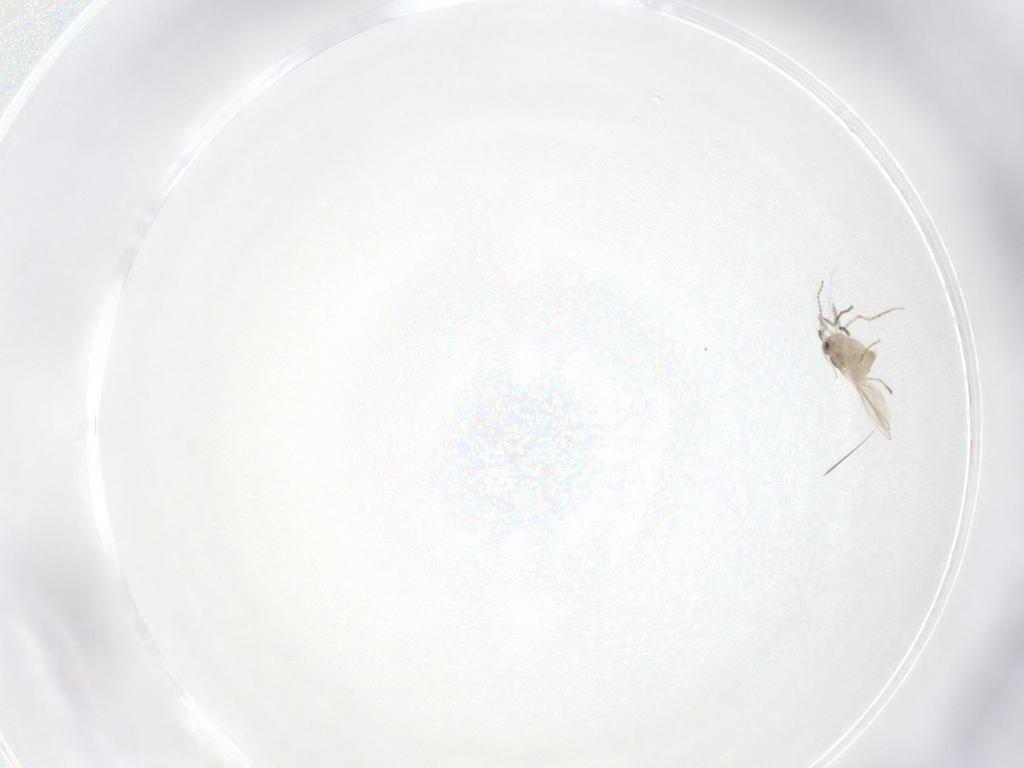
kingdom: Animalia
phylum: Arthropoda
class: Insecta
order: Diptera
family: Cecidomyiidae
